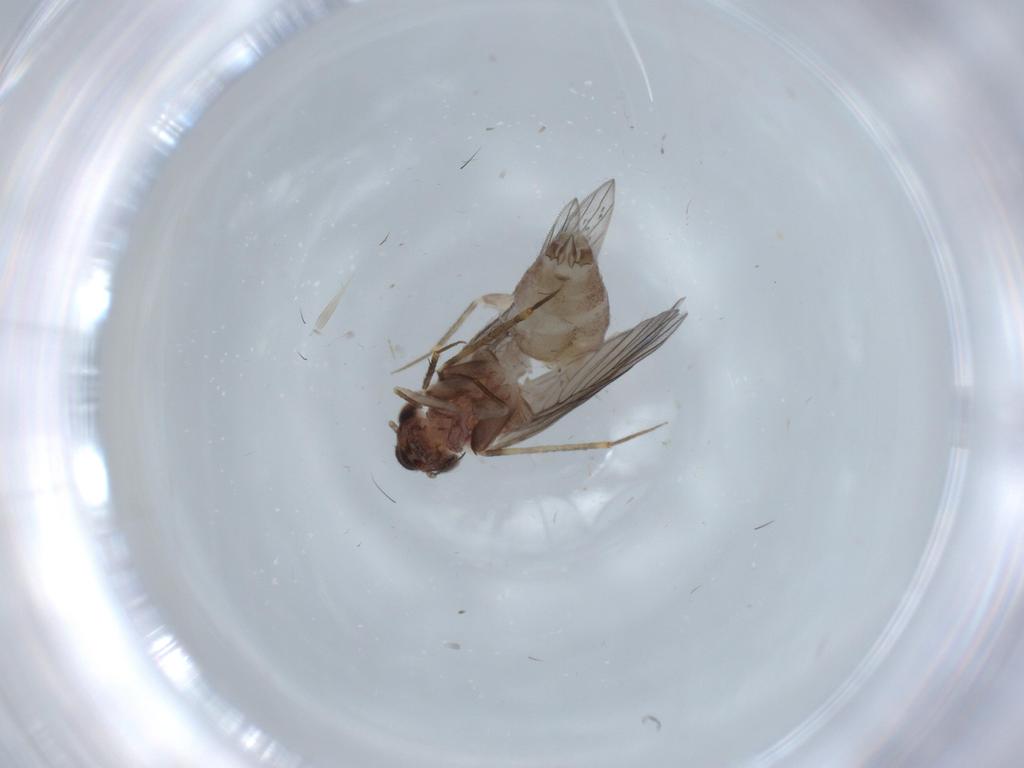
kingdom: Animalia
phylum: Arthropoda
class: Insecta
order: Psocodea
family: Lepidopsocidae
